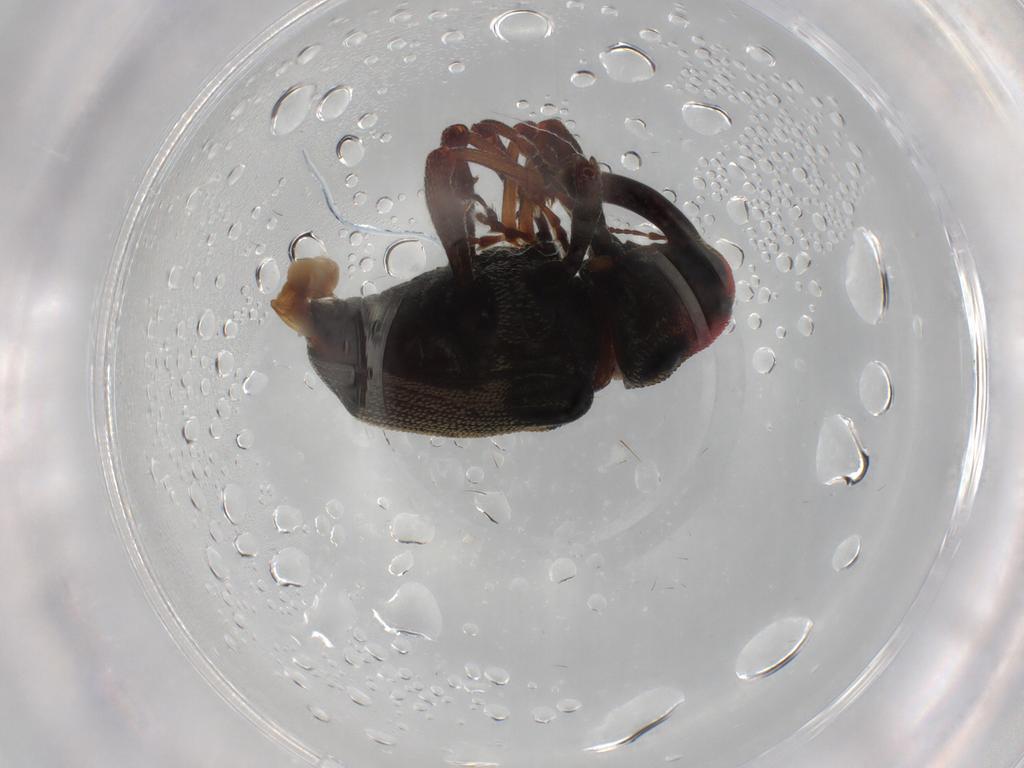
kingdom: Animalia
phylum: Arthropoda
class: Insecta
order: Coleoptera
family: Curculionidae
